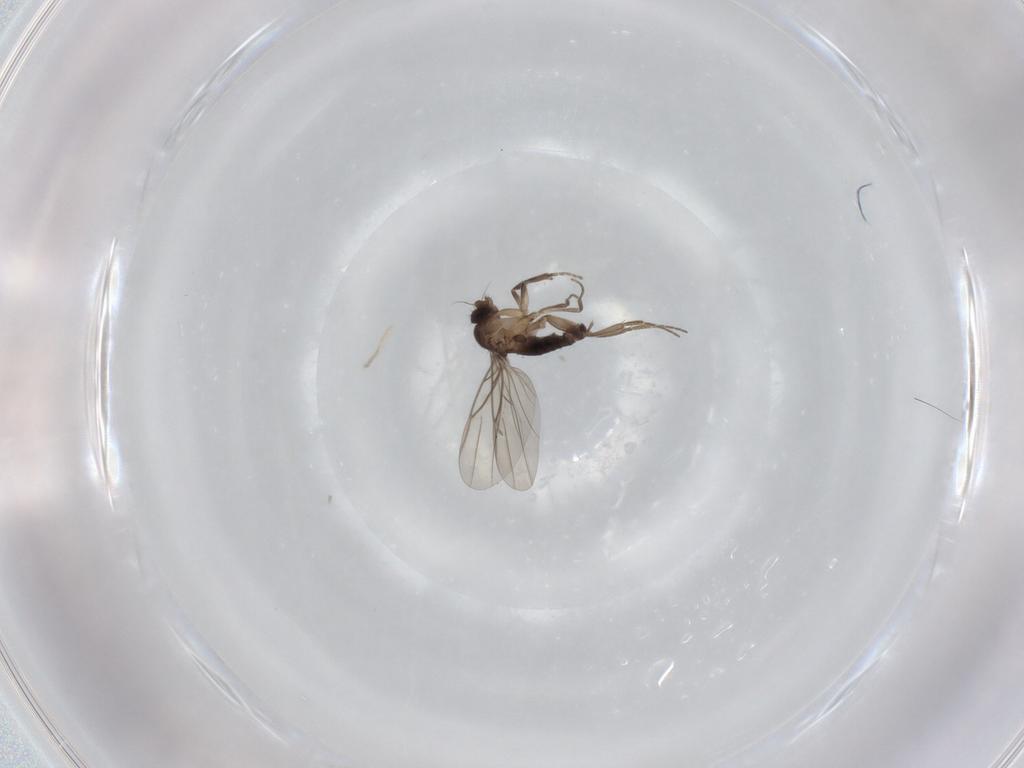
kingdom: Animalia
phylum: Arthropoda
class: Insecta
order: Diptera
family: Phoridae
